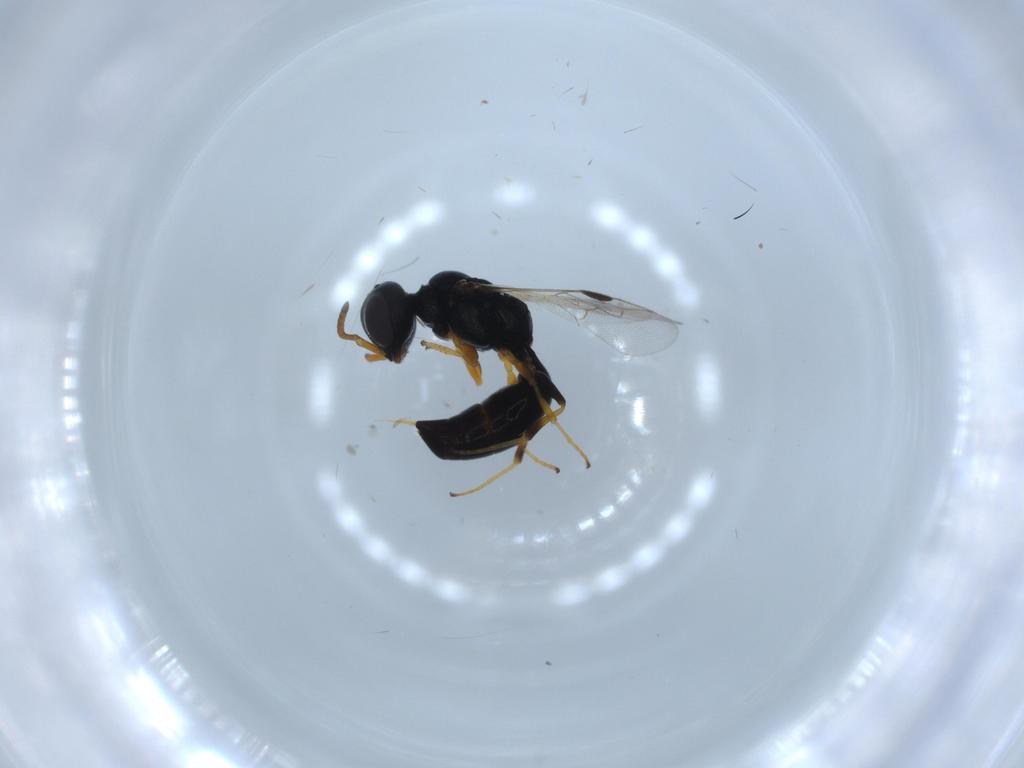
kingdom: Animalia
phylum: Arthropoda
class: Insecta
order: Hymenoptera
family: Pemphredonidae
